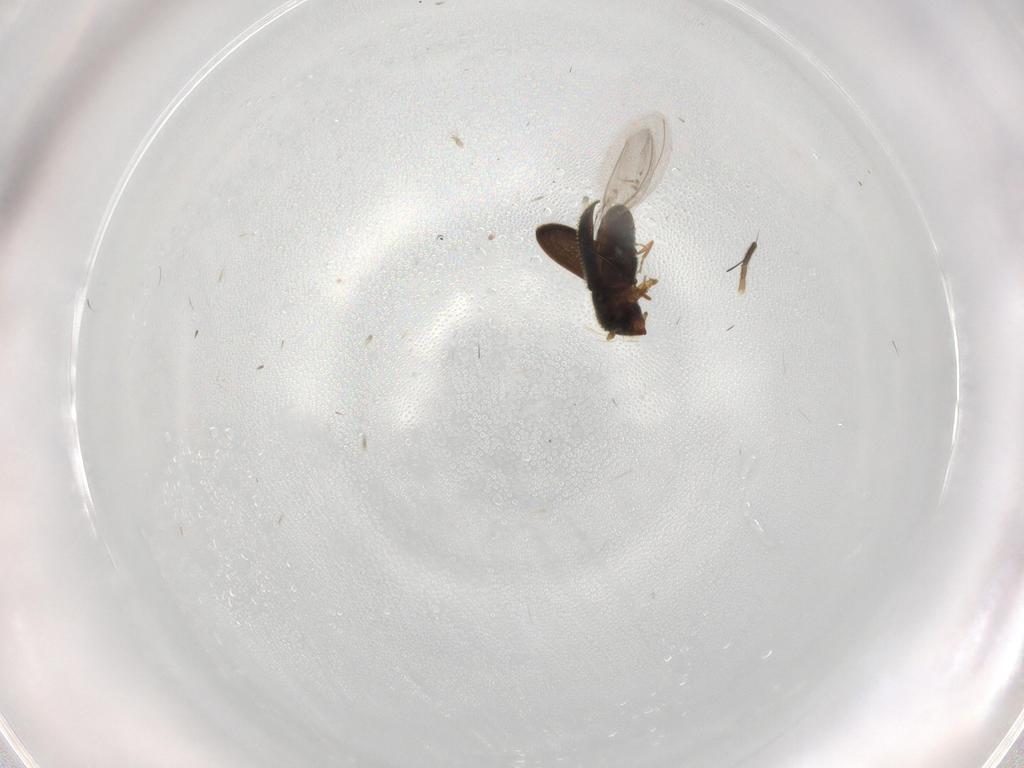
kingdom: Animalia
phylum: Arthropoda
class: Insecta
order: Coleoptera
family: Curculionidae
